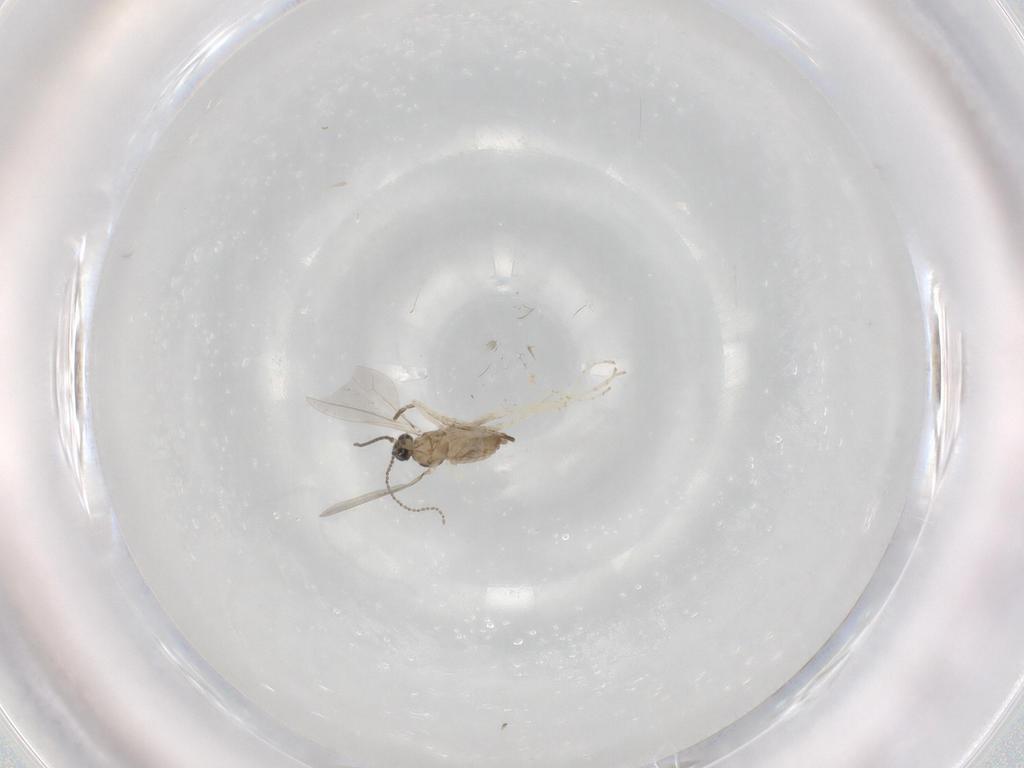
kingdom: Animalia
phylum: Arthropoda
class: Insecta
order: Diptera
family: Cecidomyiidae
